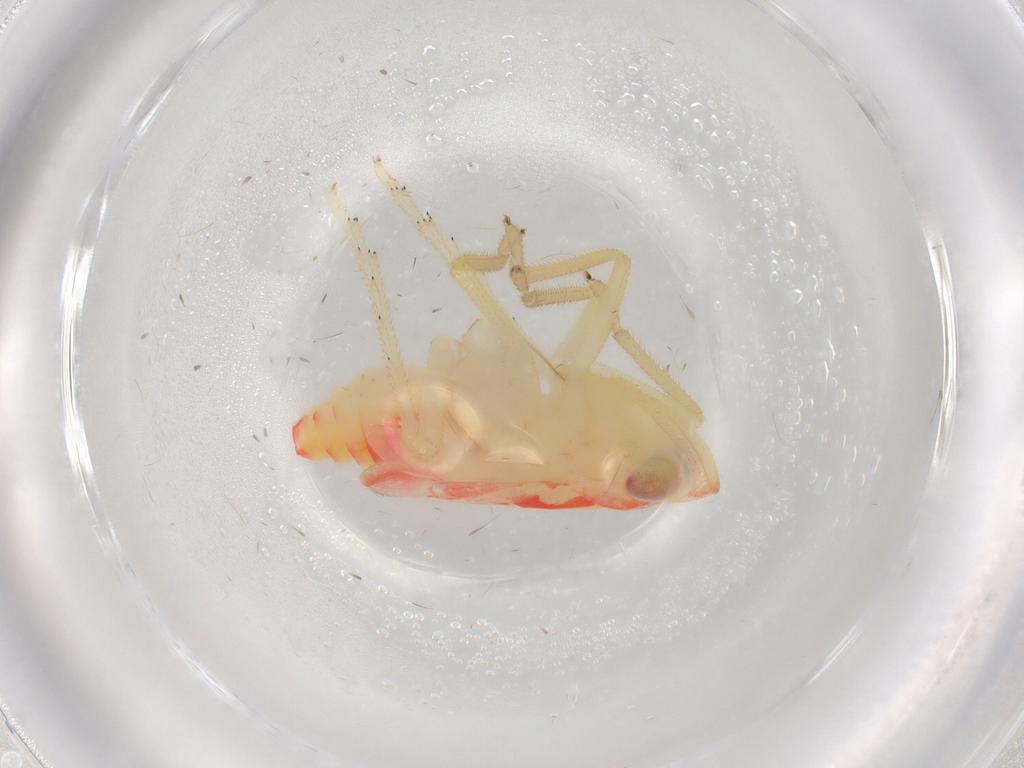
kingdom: Animalia
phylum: Arthropoda
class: Insecta
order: Hemiptera
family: Tropiduchidae
